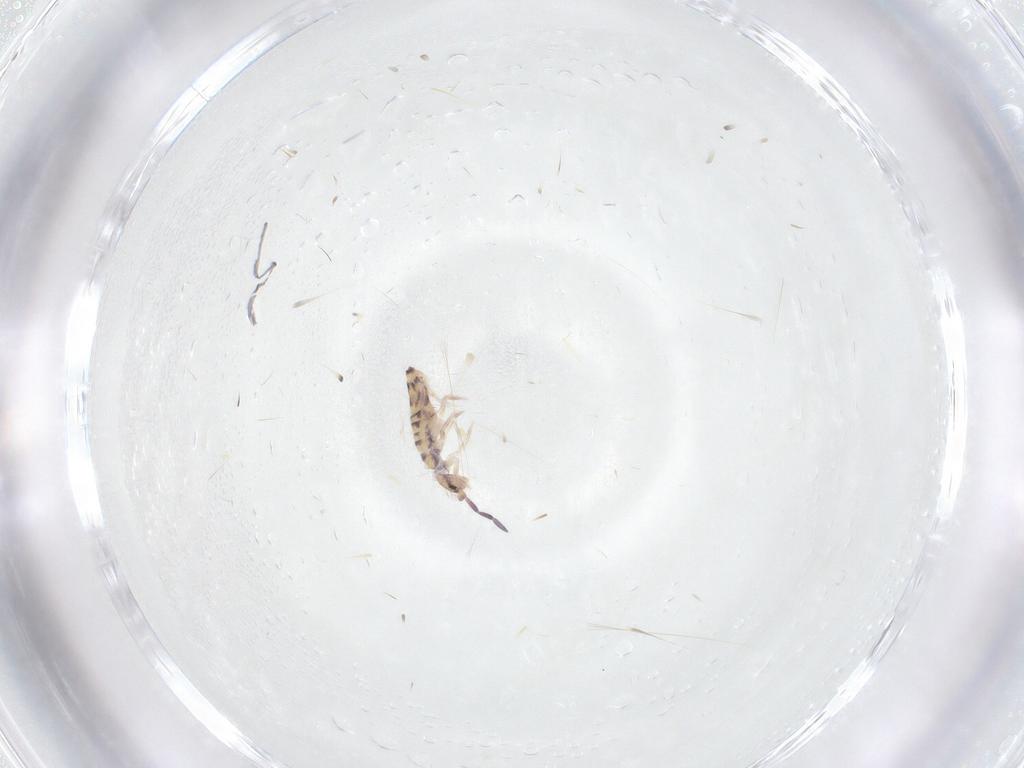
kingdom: Animalia
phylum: Arthropoda
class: Collembola
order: Entomobryomorpha
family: Entomobryidae
